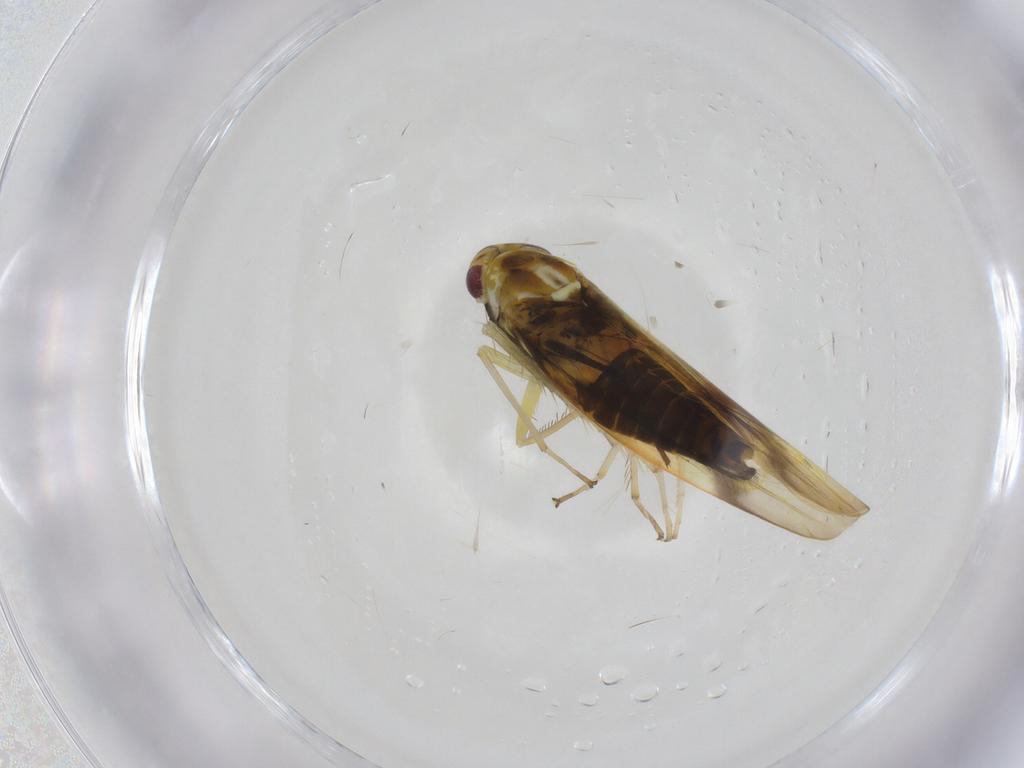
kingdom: Animalia
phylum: Arthropoda
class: Insecta
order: Hemiptera
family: Cicadellidae
